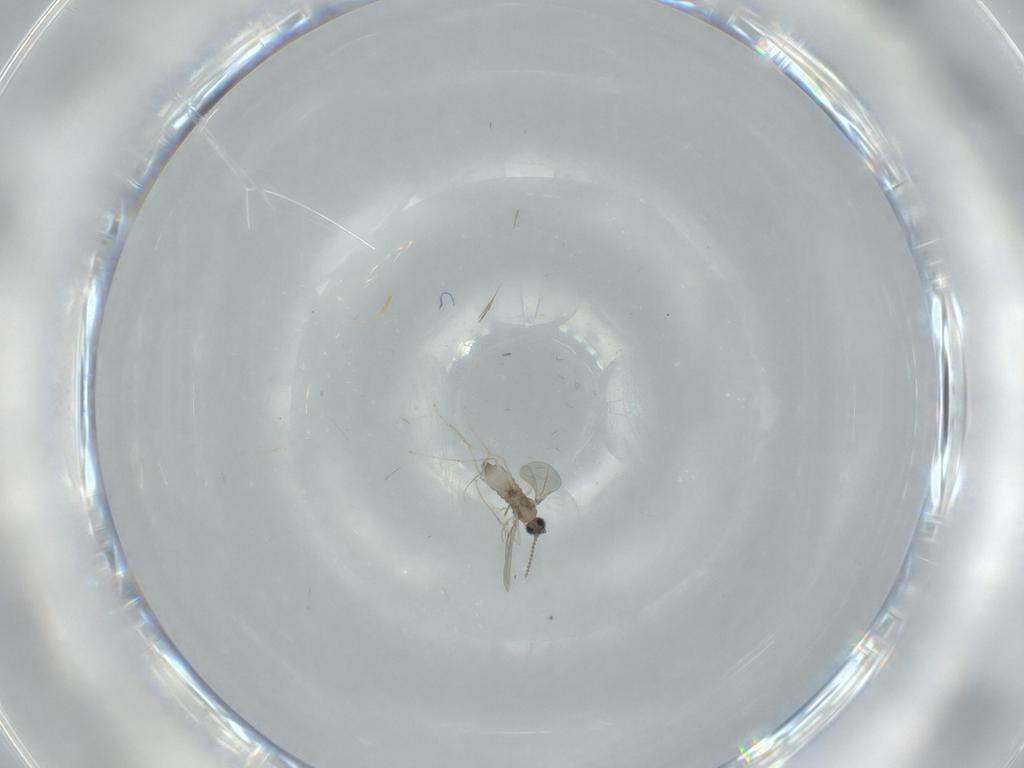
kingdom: Animalia
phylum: Arthropoda
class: Insecta
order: Diptera
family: Cecidomyiidae
